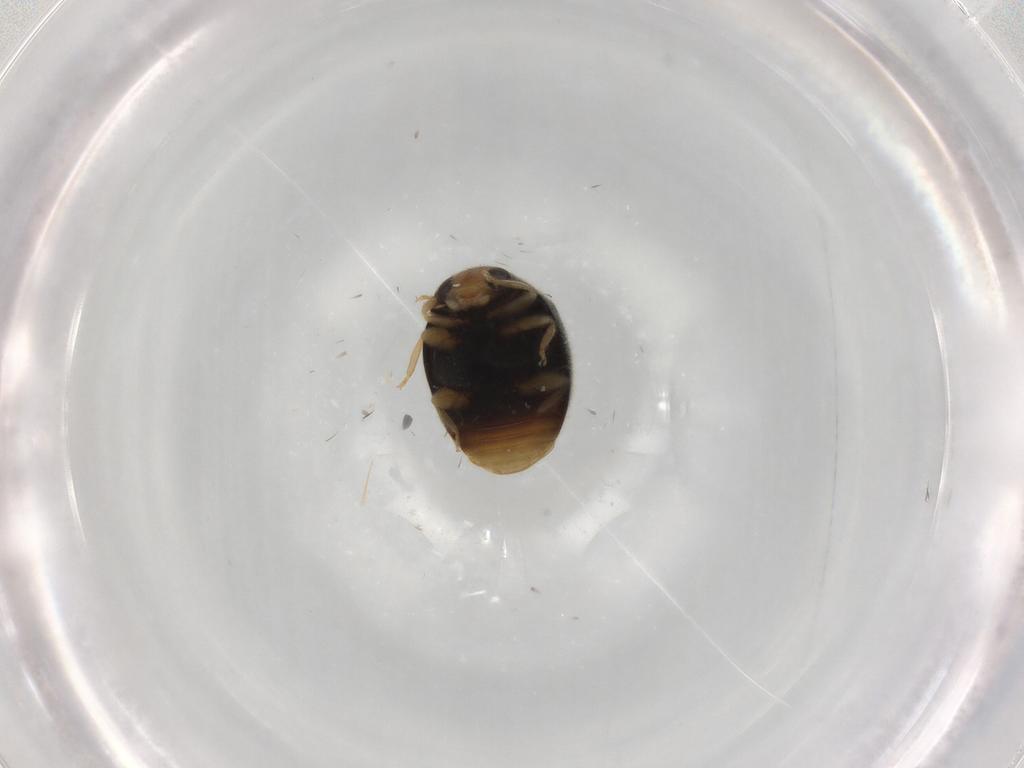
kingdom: Animalia
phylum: Arthropoda
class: Insecta
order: Coleoptera
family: Chrysomelidae
